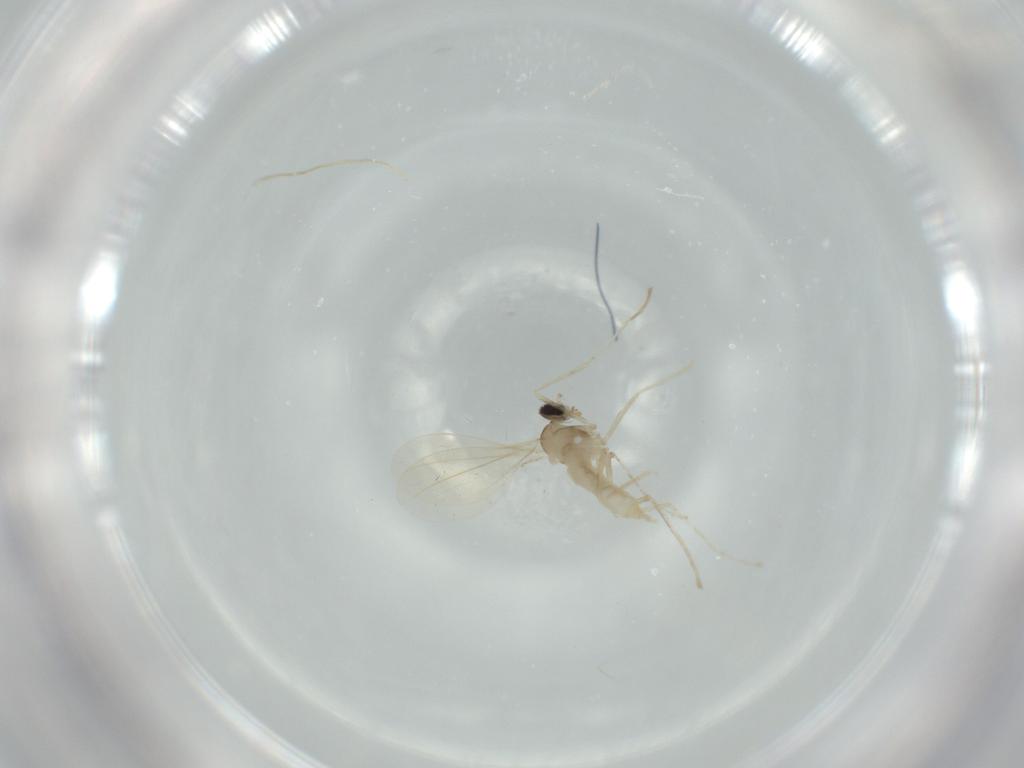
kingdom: Animalia
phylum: Arthropoda
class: Insecta
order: Diptera
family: Cecidomyiidae
